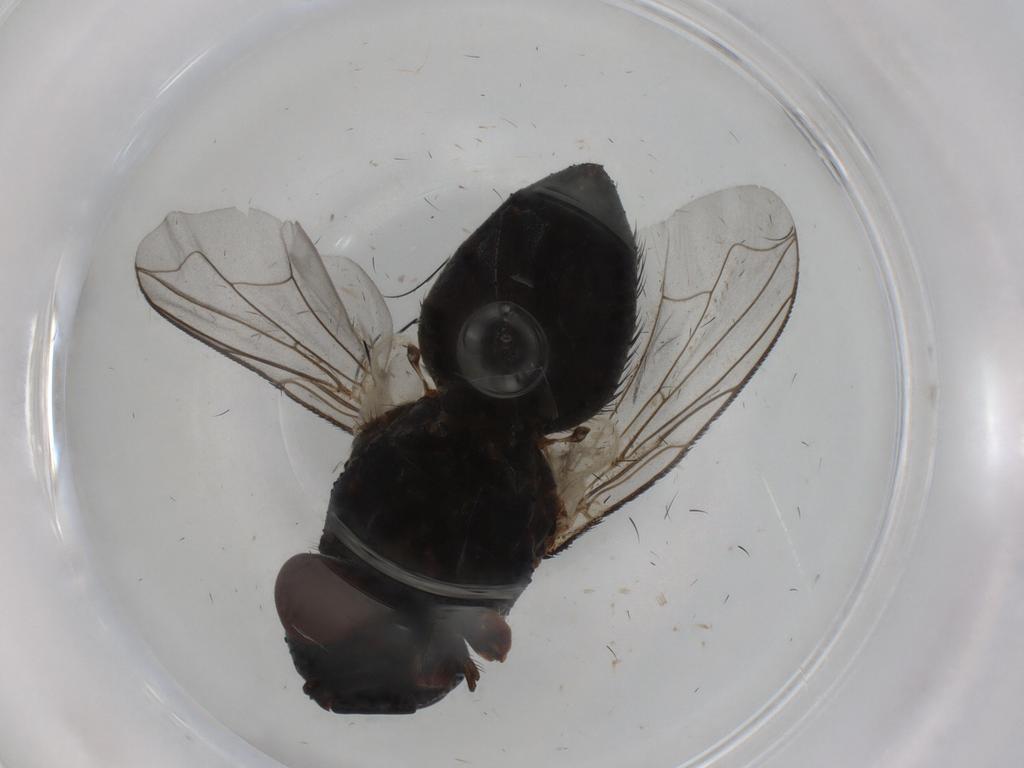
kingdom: Animalia
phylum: Arthropoda
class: Insecta
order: Diptera
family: Tachinidae
